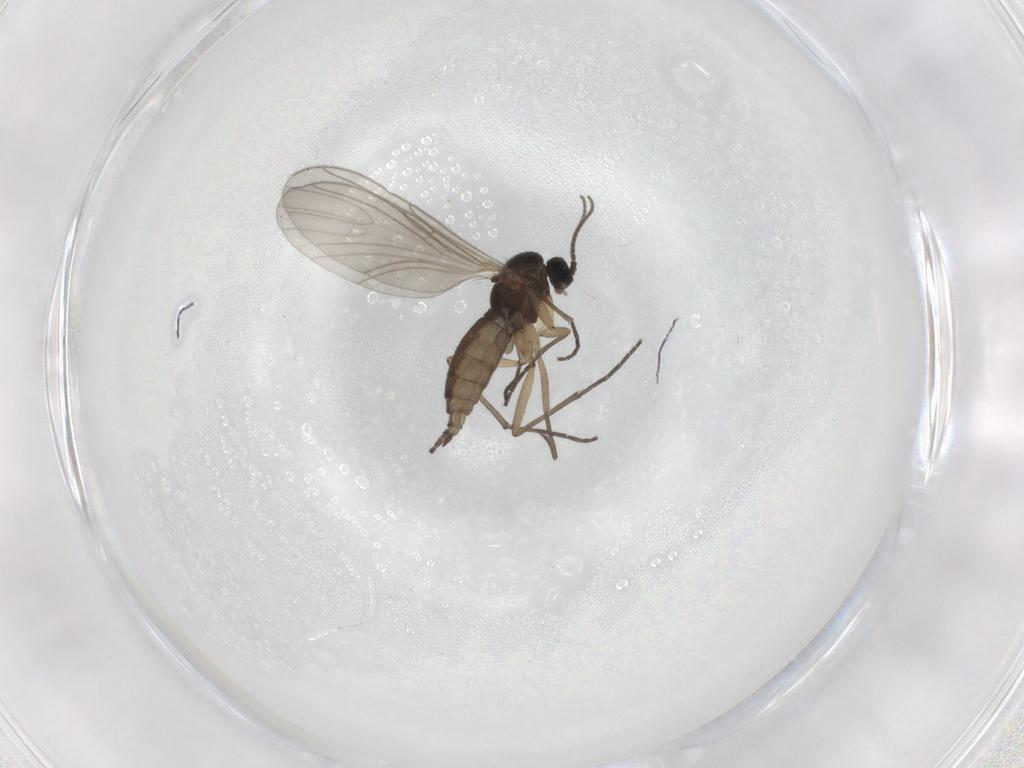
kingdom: Animalia
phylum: Arthropoda
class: Insecta
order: Diptera
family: Sciaridae
